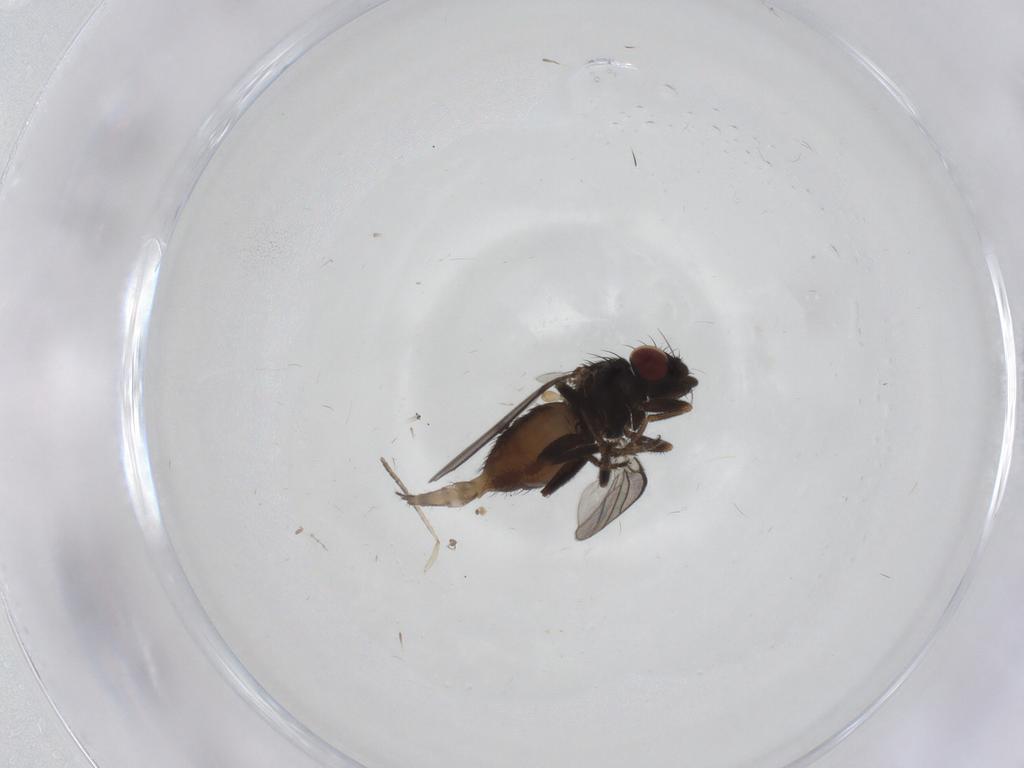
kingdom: Animalia
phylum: Arthropoda
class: Insecta
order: Diptera
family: Milichiidae
